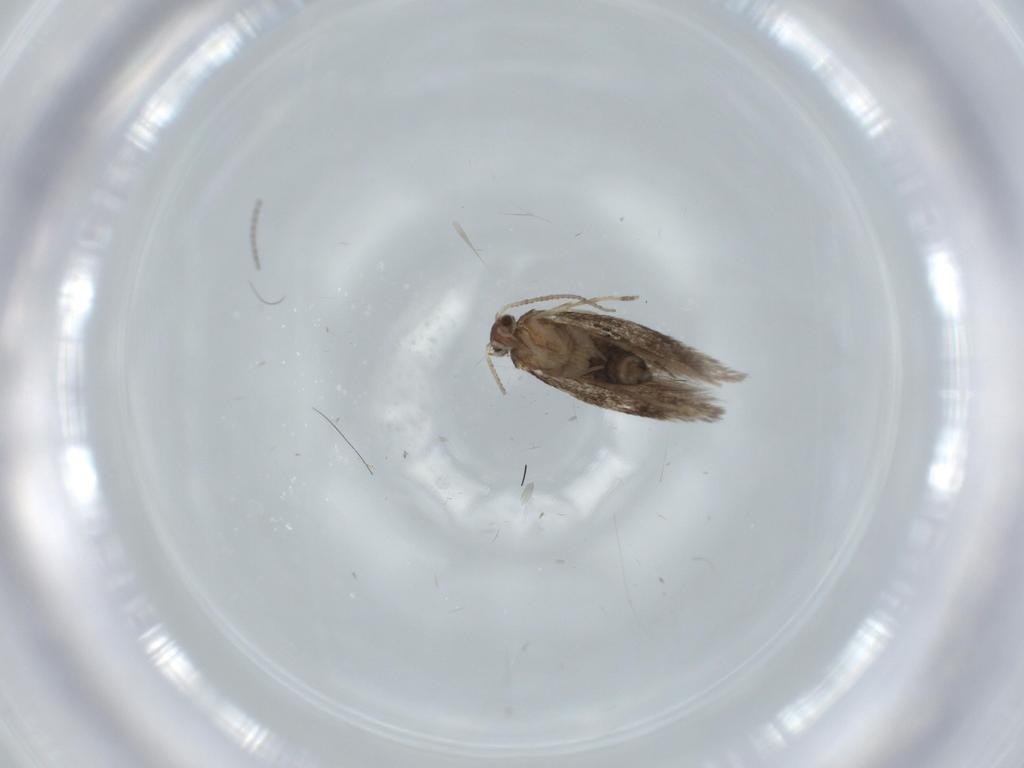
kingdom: Animalia
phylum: Arthropoda
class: Insecta
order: Lepidoptera
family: Tineidae
